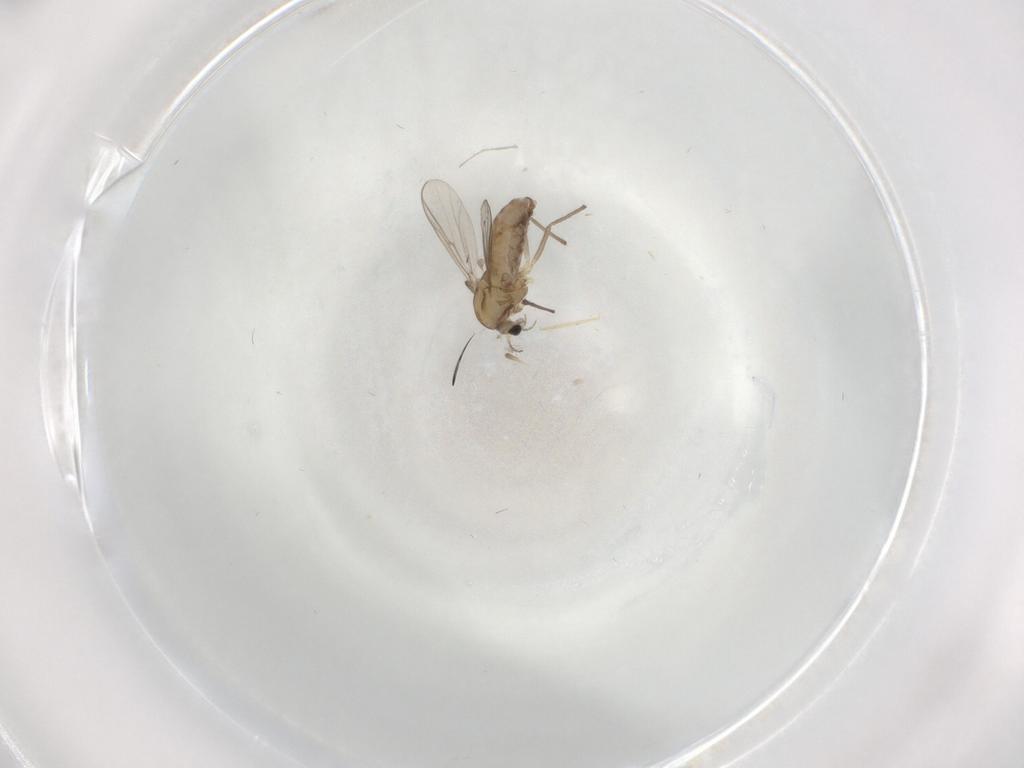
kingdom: Animalia
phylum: Arthropoda
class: Insecta
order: Diptera
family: Chironomidae
